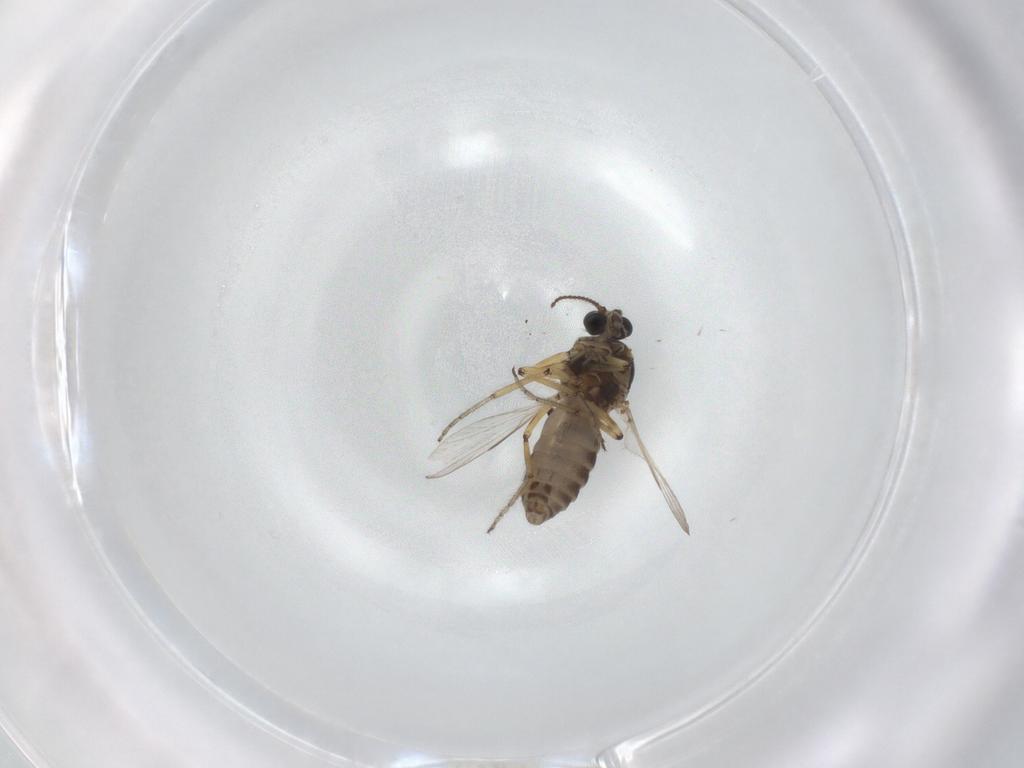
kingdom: Animalia
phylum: Arthropoda
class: Insecta
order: Diptera
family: Ceratopogonidae
